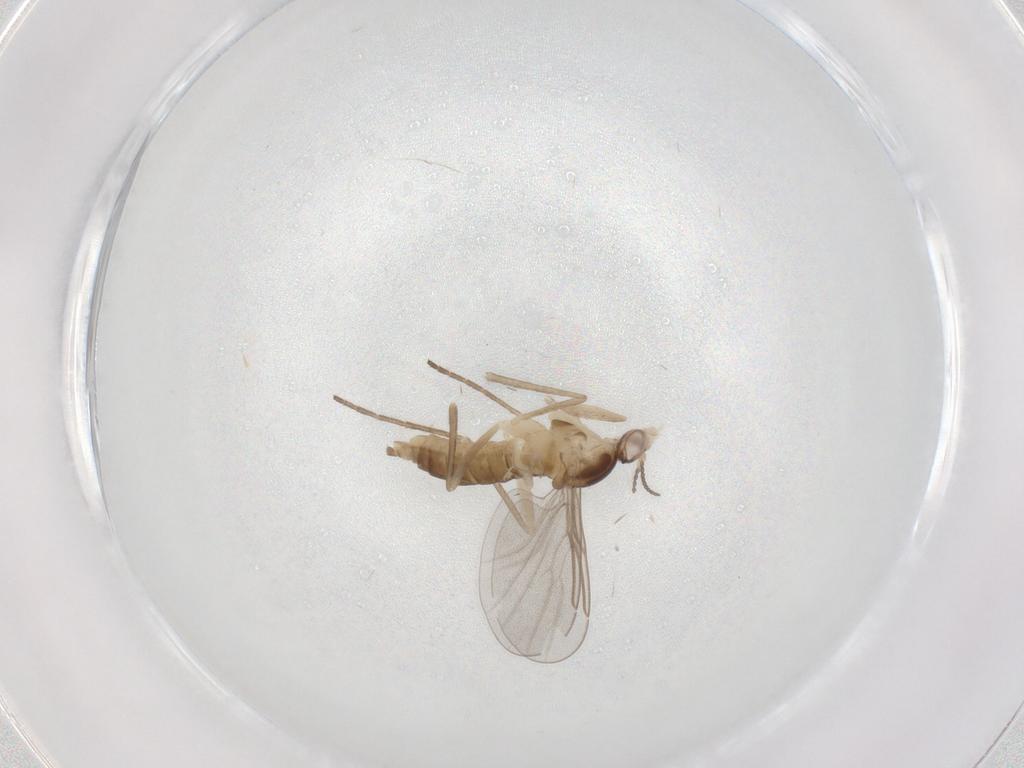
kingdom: Animalia
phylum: Arthropoda
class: Insecta
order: Diptera
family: Cecidomyiidae
